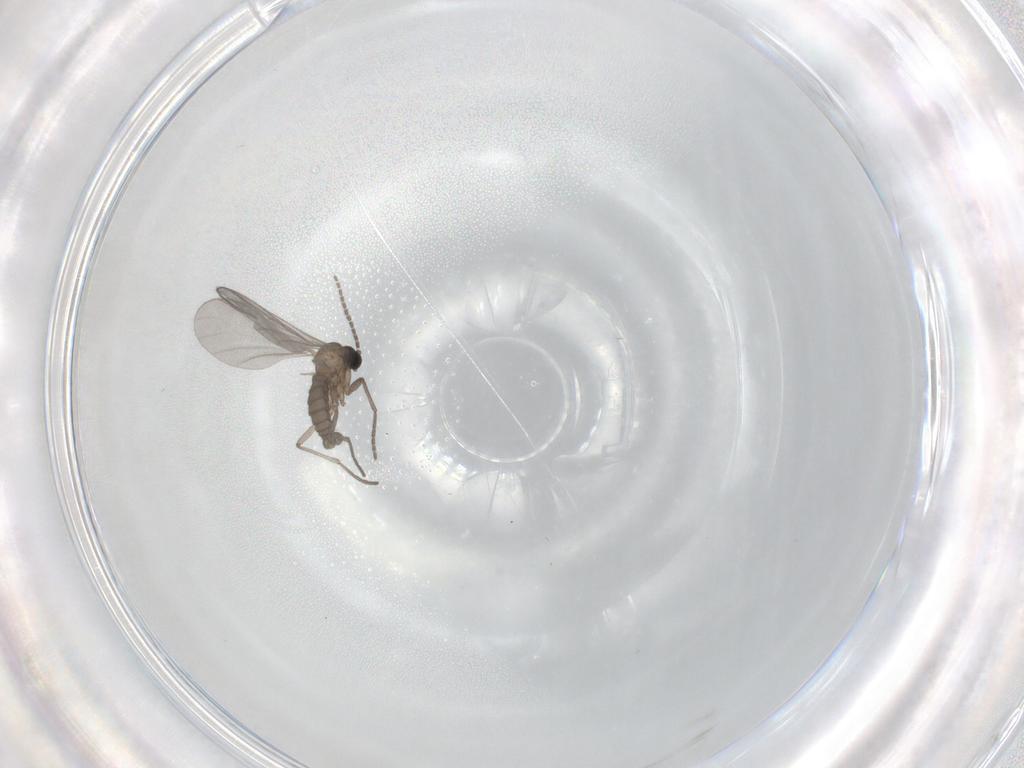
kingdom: Animalia
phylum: Arthropoda
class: Insecta
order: Diptera
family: Sciaridae
